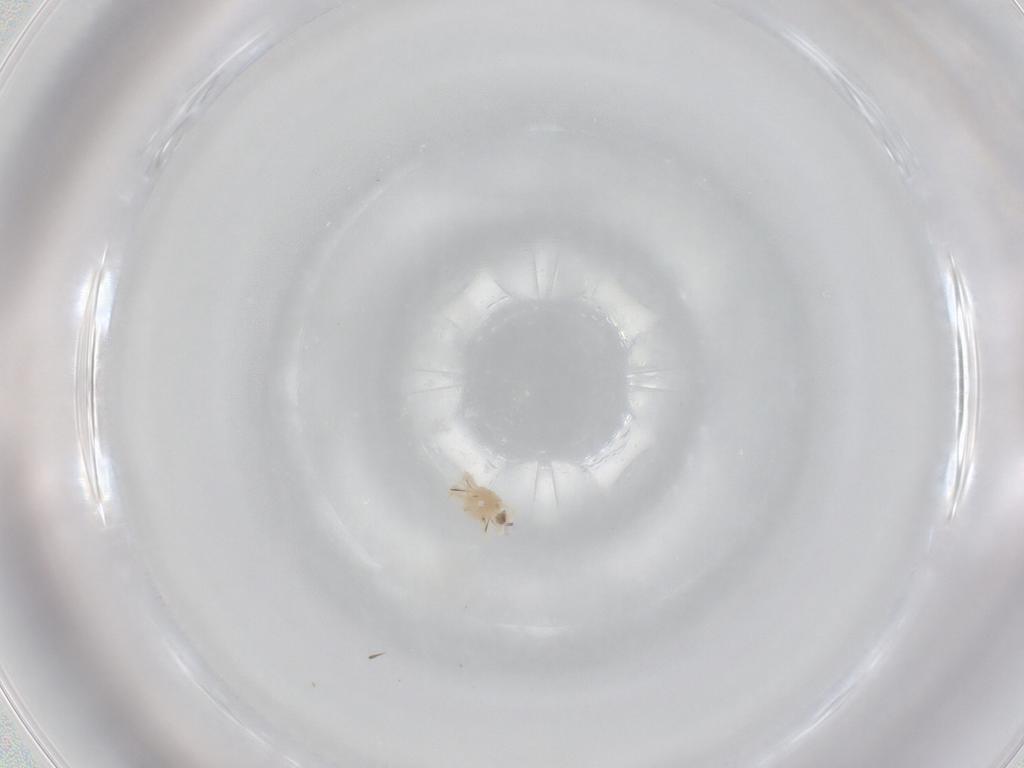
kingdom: Animalia
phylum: Arthropoda
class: Arachnida
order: Trombidiformes
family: Anystidae
